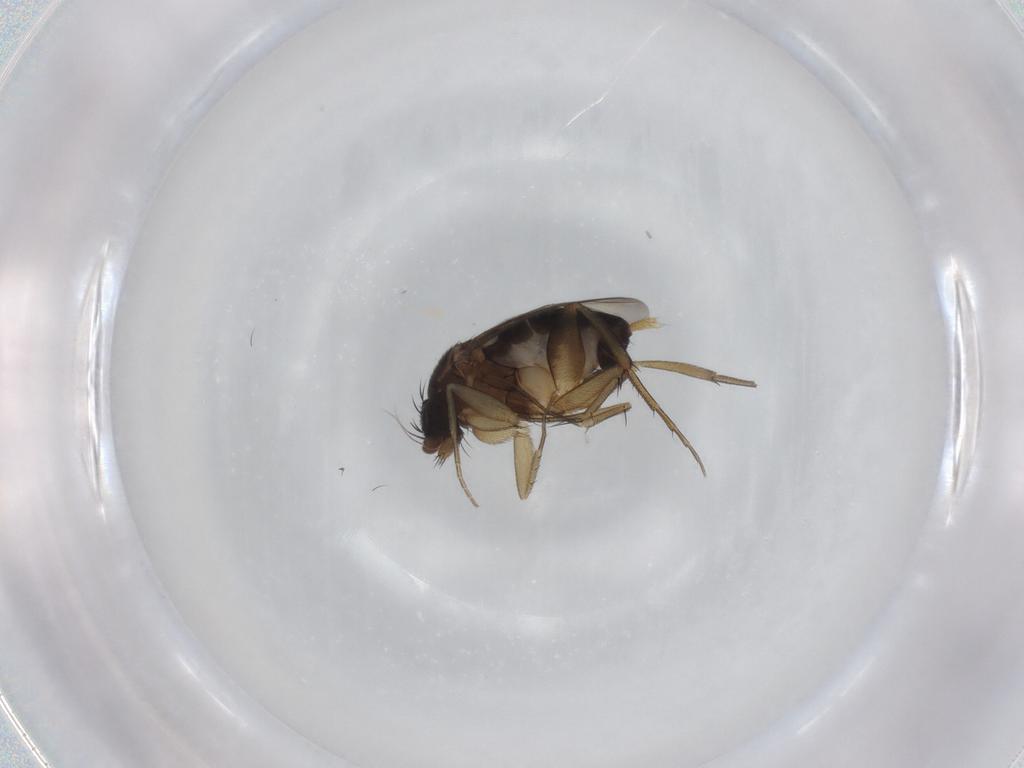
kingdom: Animalia
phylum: Arthropoda
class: Insecta
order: Diptera
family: Phoridae
